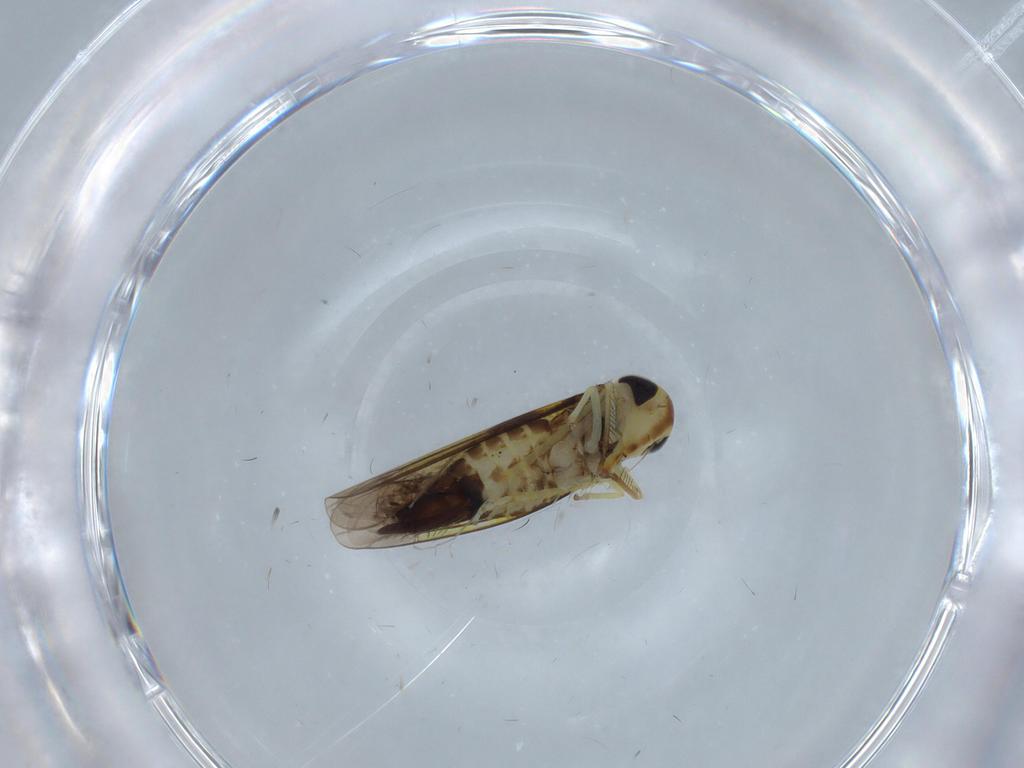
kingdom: Animalia
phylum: Arthropoda
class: Insecta
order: Hemiptera
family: Cicadellidae
